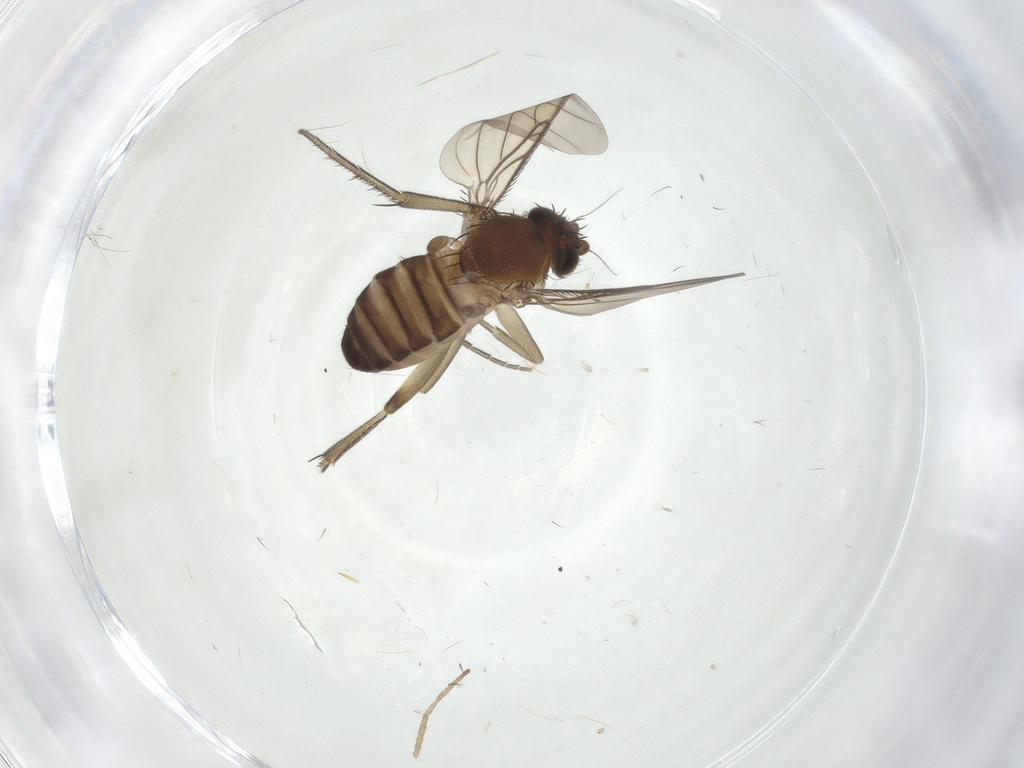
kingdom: Animalia
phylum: Arthropoda
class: Insecta
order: Diptera
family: Phoridae
